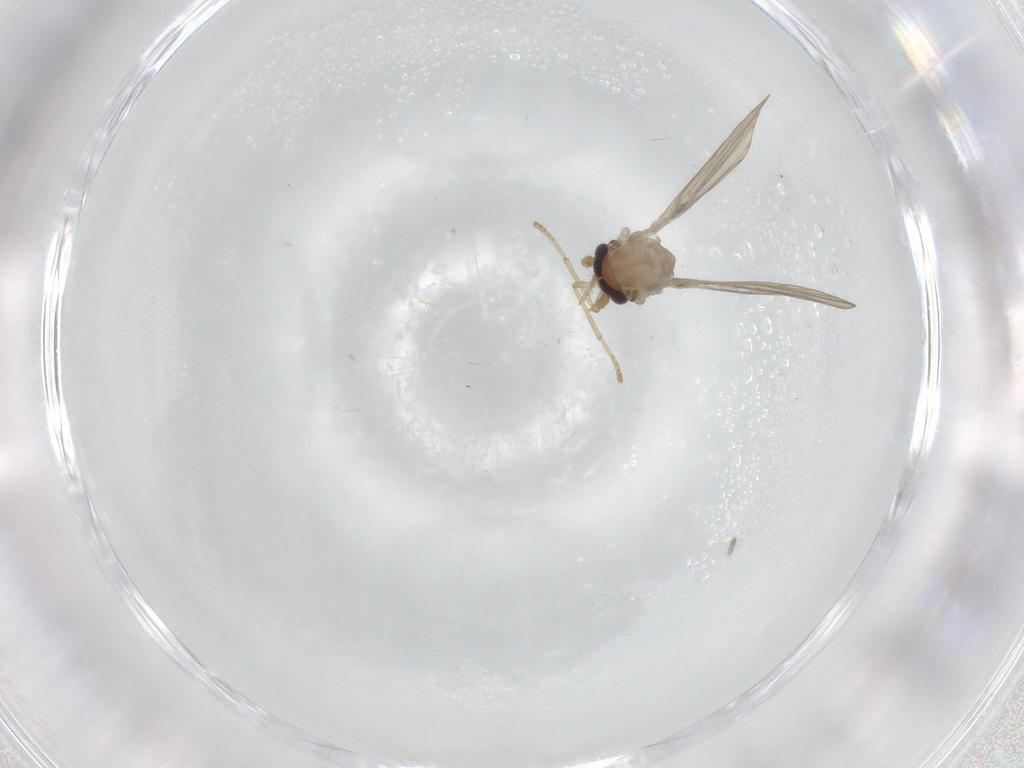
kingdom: Animalia
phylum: Arthropoda
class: Insecta
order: Diptera
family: Psychodidae
